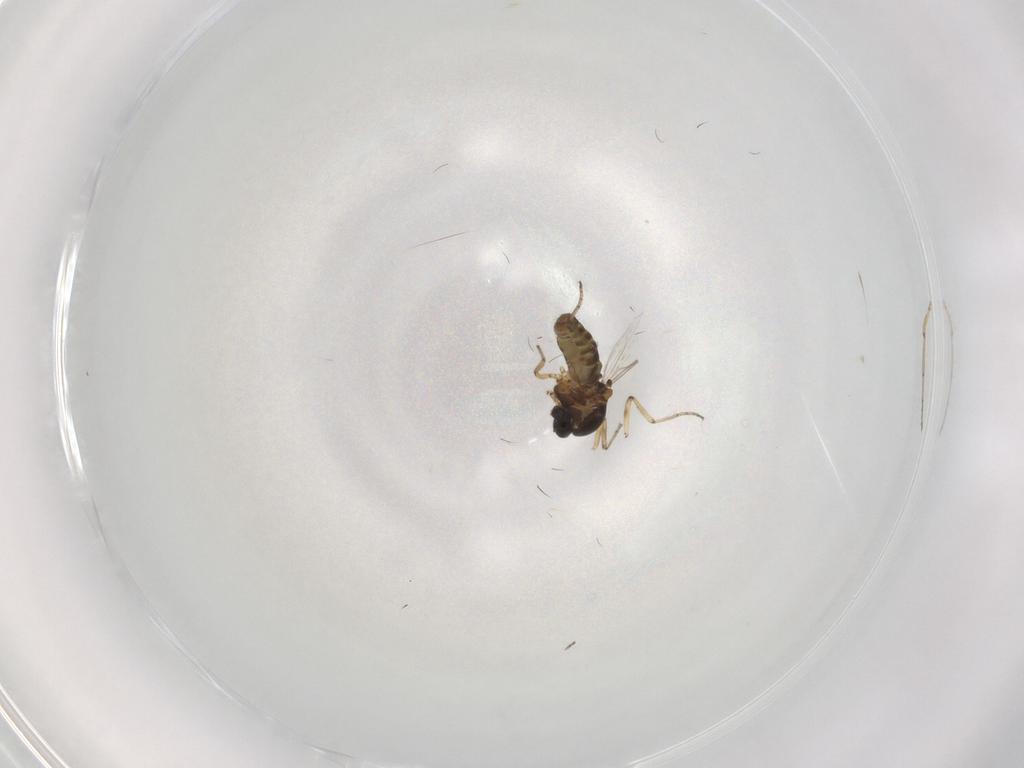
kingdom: Animalia
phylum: Arthropoda
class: Insecta
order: Diptera
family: Ceratopogonidae
